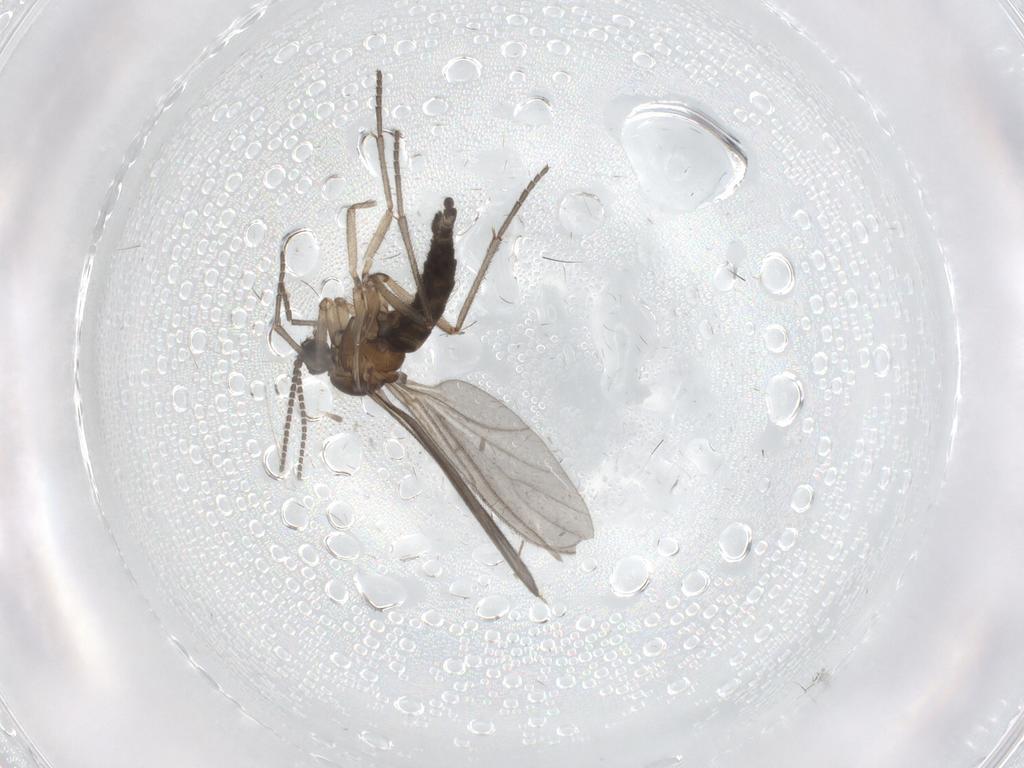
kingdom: Animalia
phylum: Arthropoda
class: Insecta
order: Diptera
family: Sciaridae
